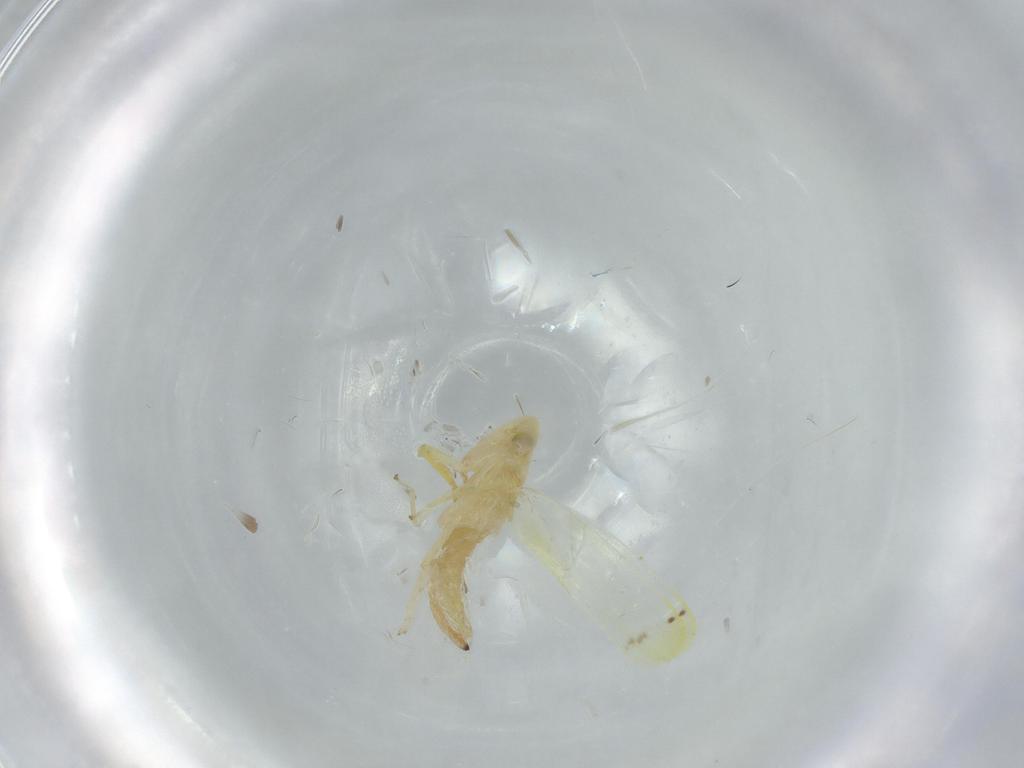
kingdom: Animalia
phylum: Arthropoda
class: Insecta
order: Hemiptera
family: Cicadellidae
